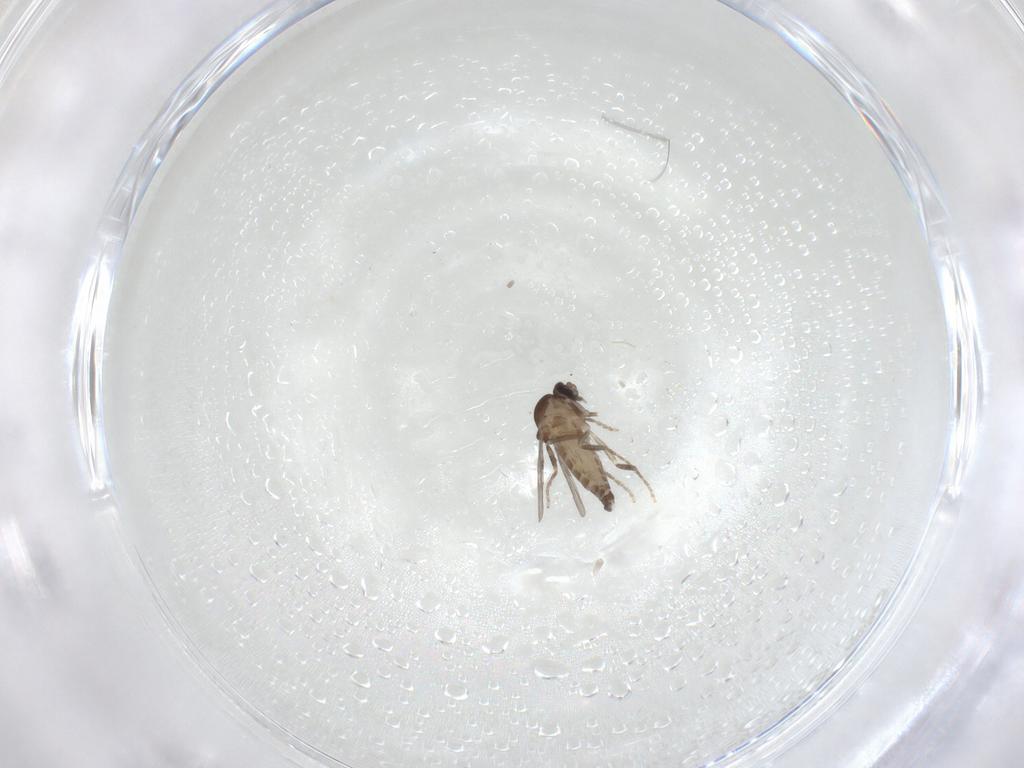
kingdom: Animalia
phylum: Arthropoda
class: Insecta
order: Diptera
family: Ceratopogonidae
